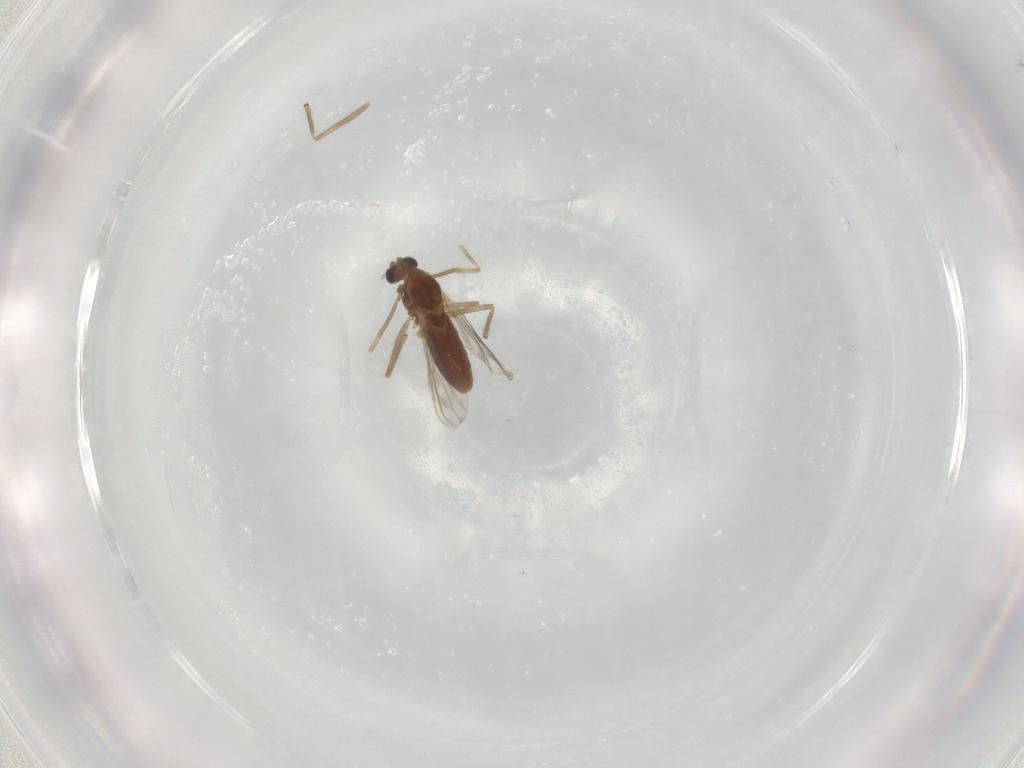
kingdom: Animalia
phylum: Arthropoda
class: Insecta
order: Diptera
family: Chironomidae
